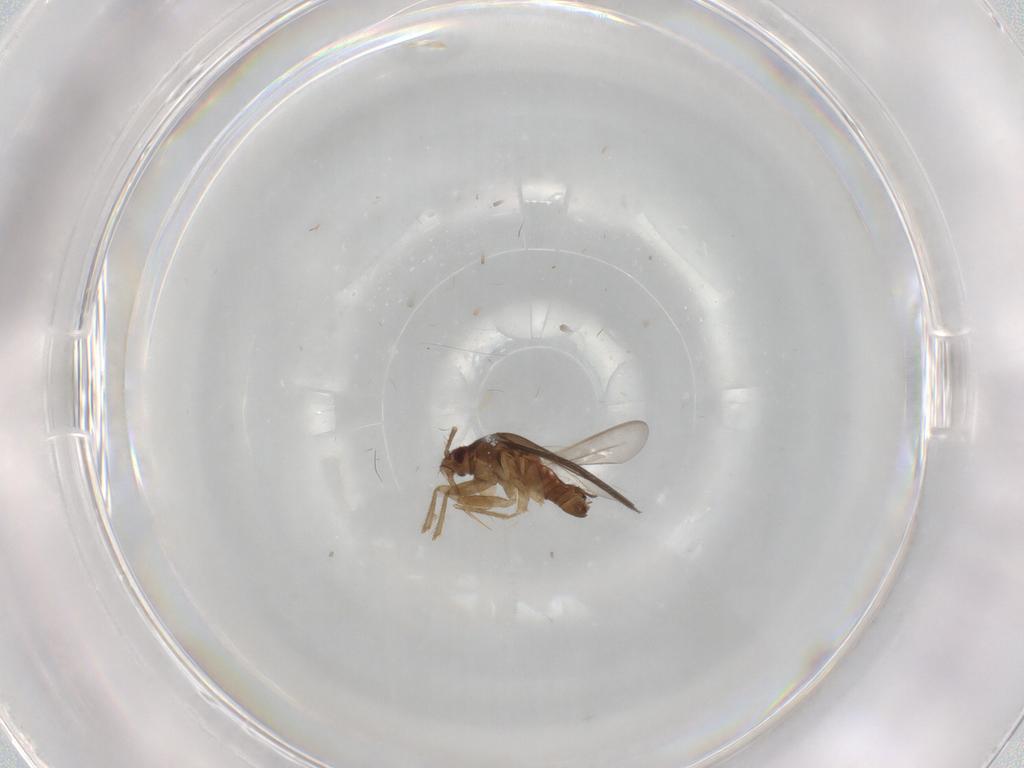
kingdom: Animalia
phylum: Arthropoda
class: Insecta
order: Hemiptera
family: Ceratocombidae
